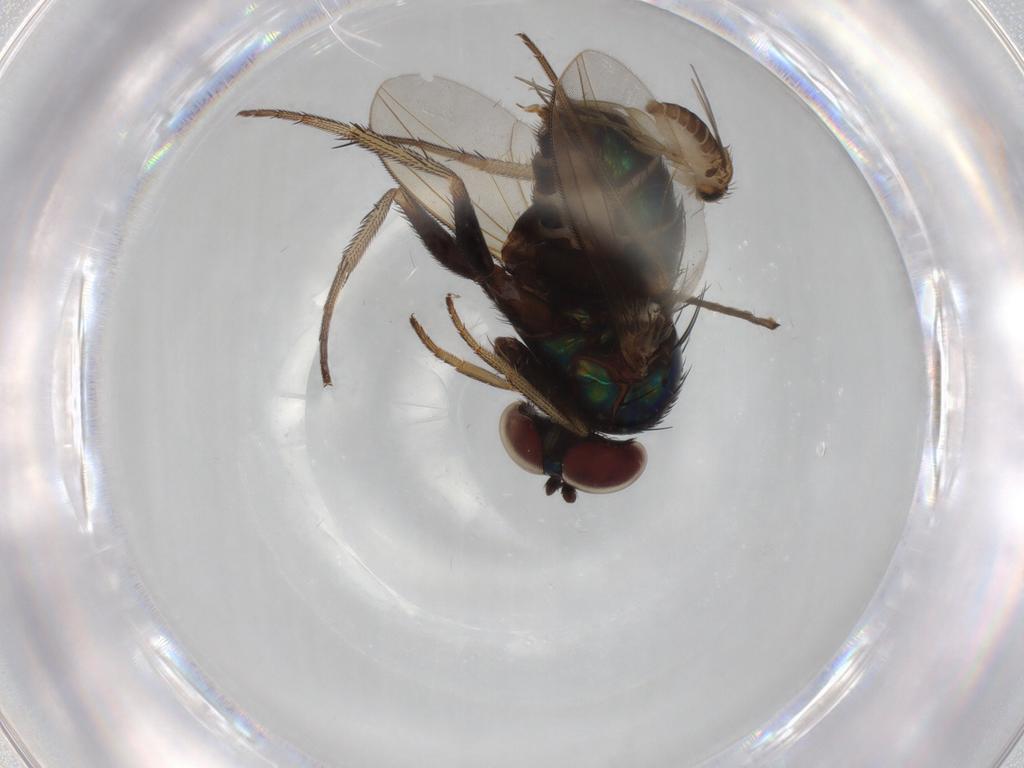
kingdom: Animalia
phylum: Arthropoda
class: Insecta
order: Diptera
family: Dolichopodidae
